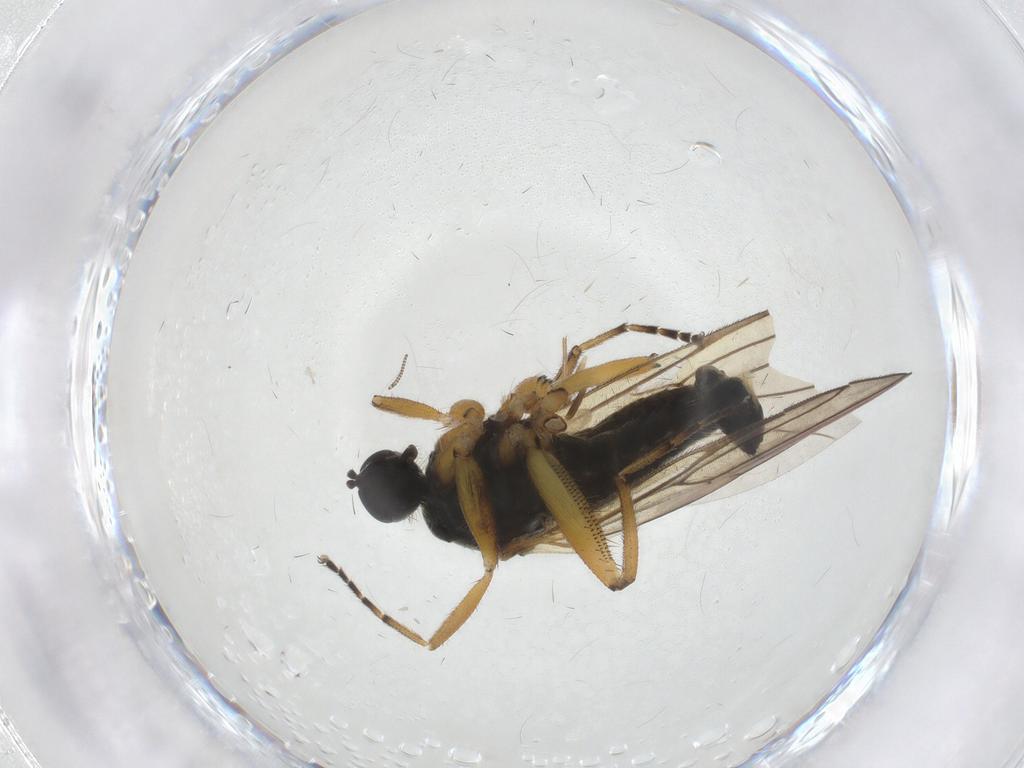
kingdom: Animalia
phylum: Arthropoda
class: Insecta
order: Diptera
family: Hybotidae
